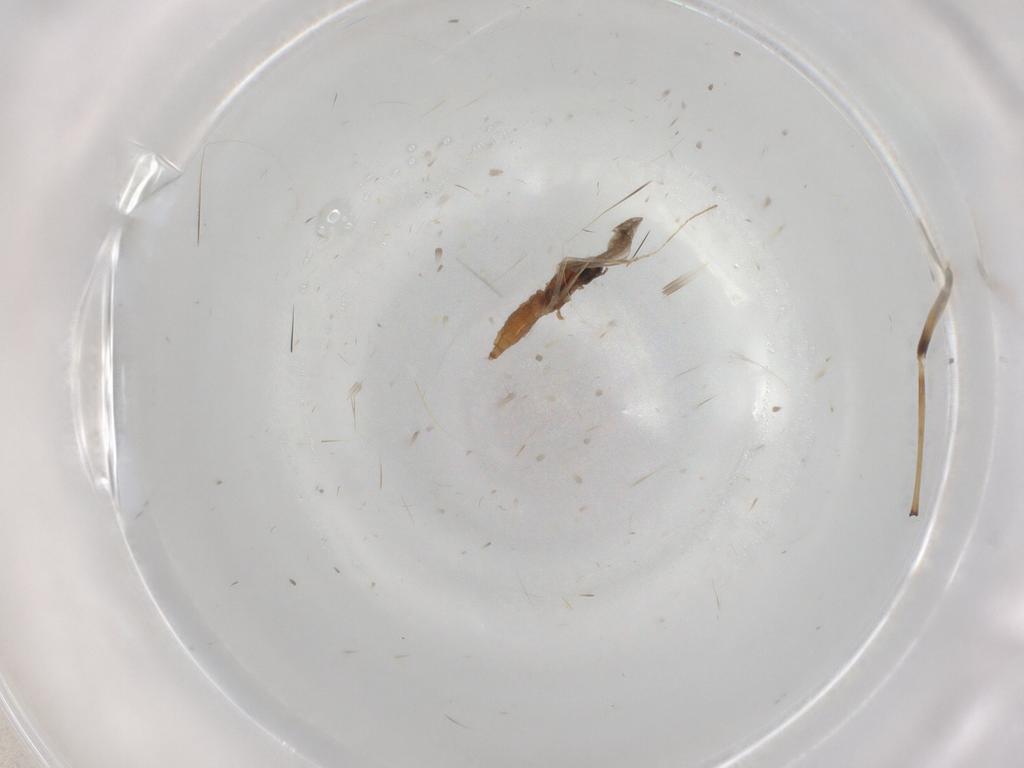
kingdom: Animalia
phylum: Arthropoda
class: Insecta
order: Diptera
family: Cecidomyiidae
